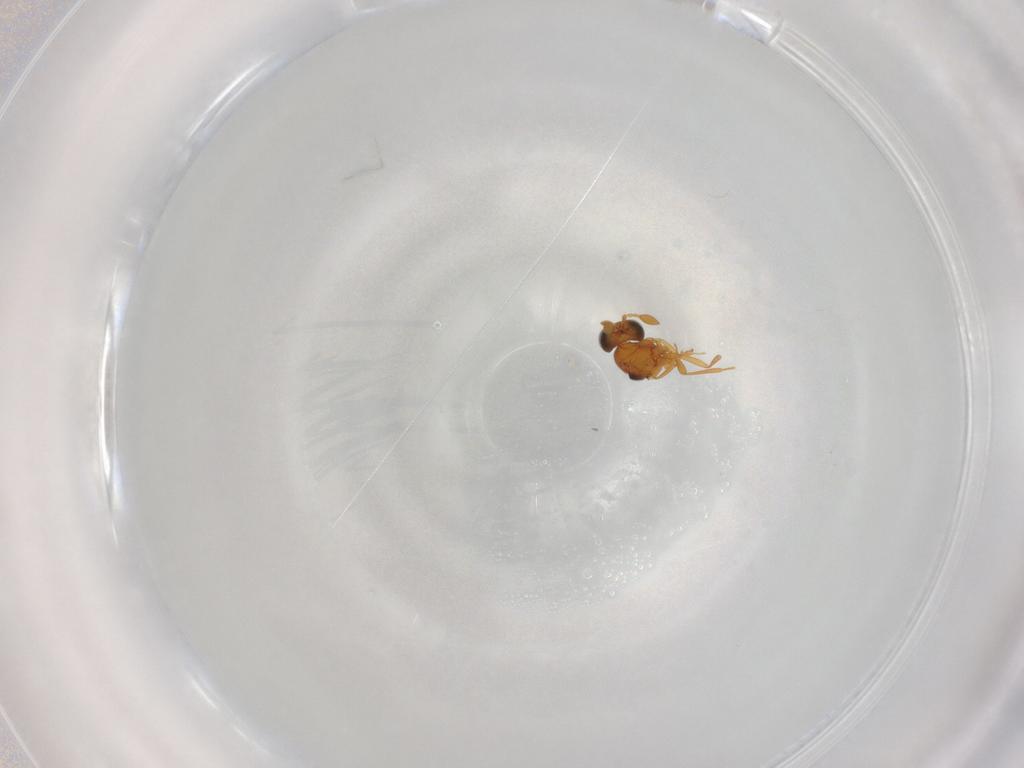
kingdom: Animalia
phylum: Arthropoda
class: Insecta
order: Hymenoptera
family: Scelionidae
